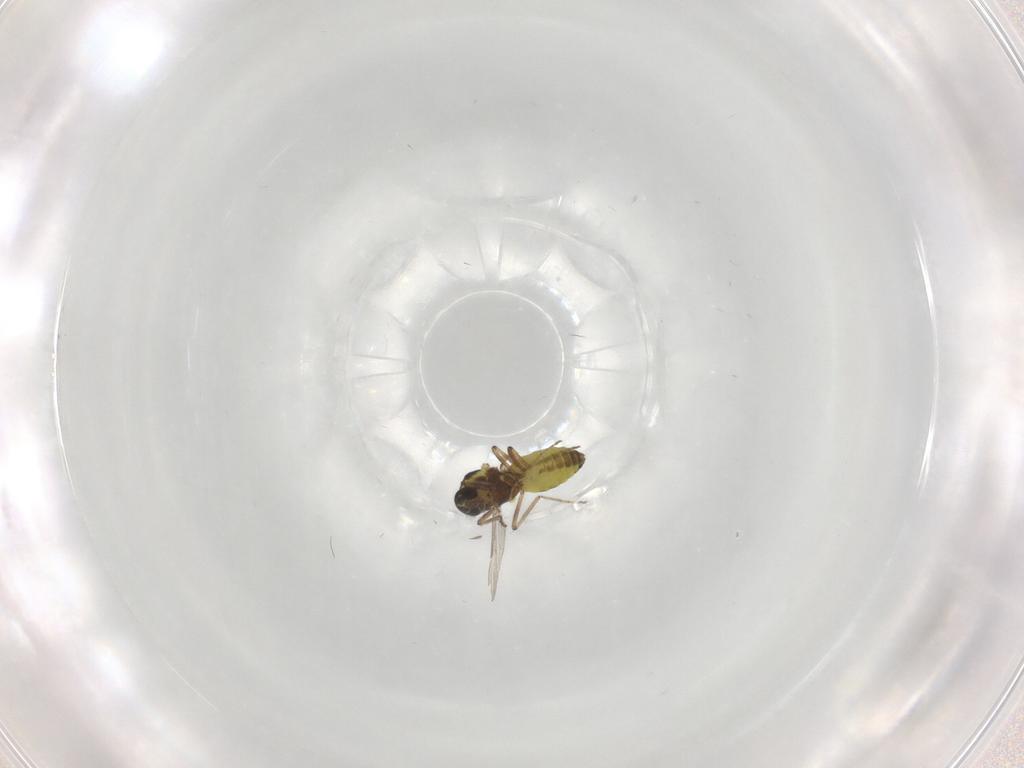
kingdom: Animalia
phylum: Arthropoda
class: Insecta
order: Diptera
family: Ceratopogonidae
